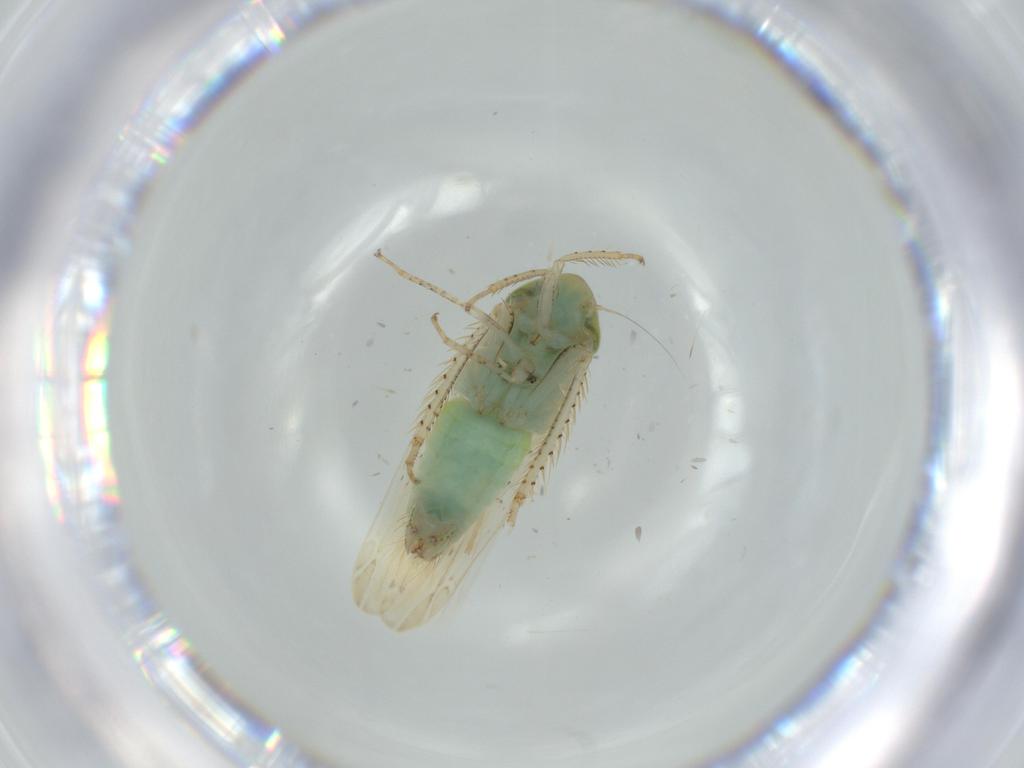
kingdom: Animalia
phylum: Arthropoda
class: Insecta
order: Hemiptera
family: Cicadellidae
